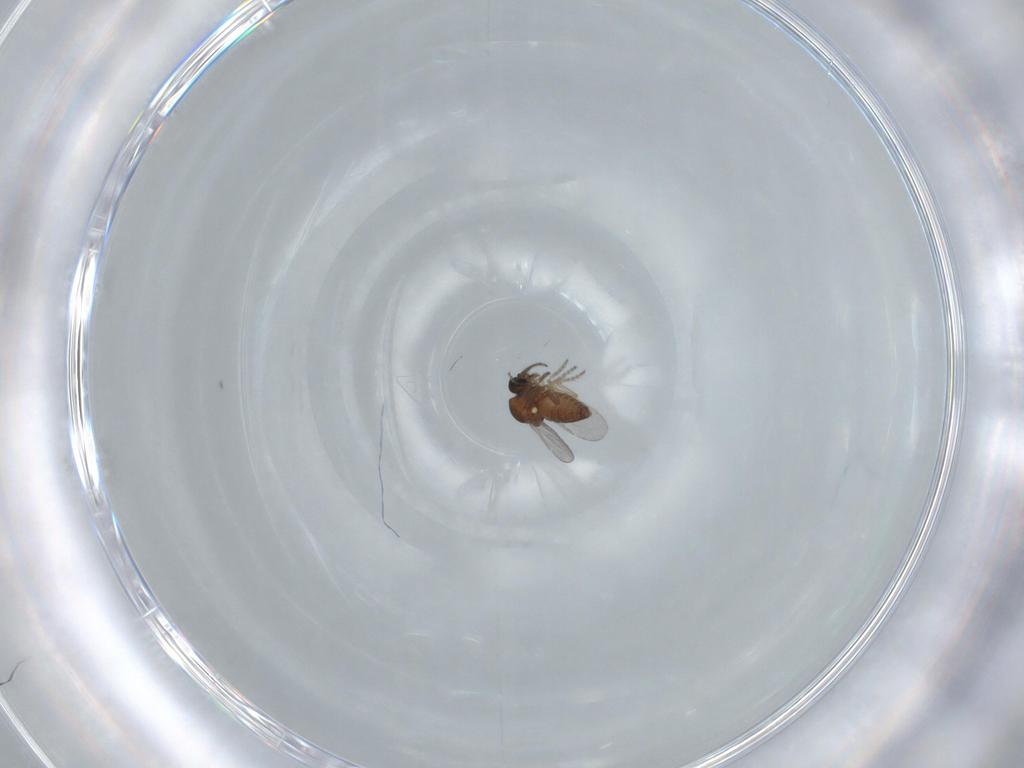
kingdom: Animalia
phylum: Arthropoda
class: Insecta
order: Diptera
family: Ceratopogonidae
